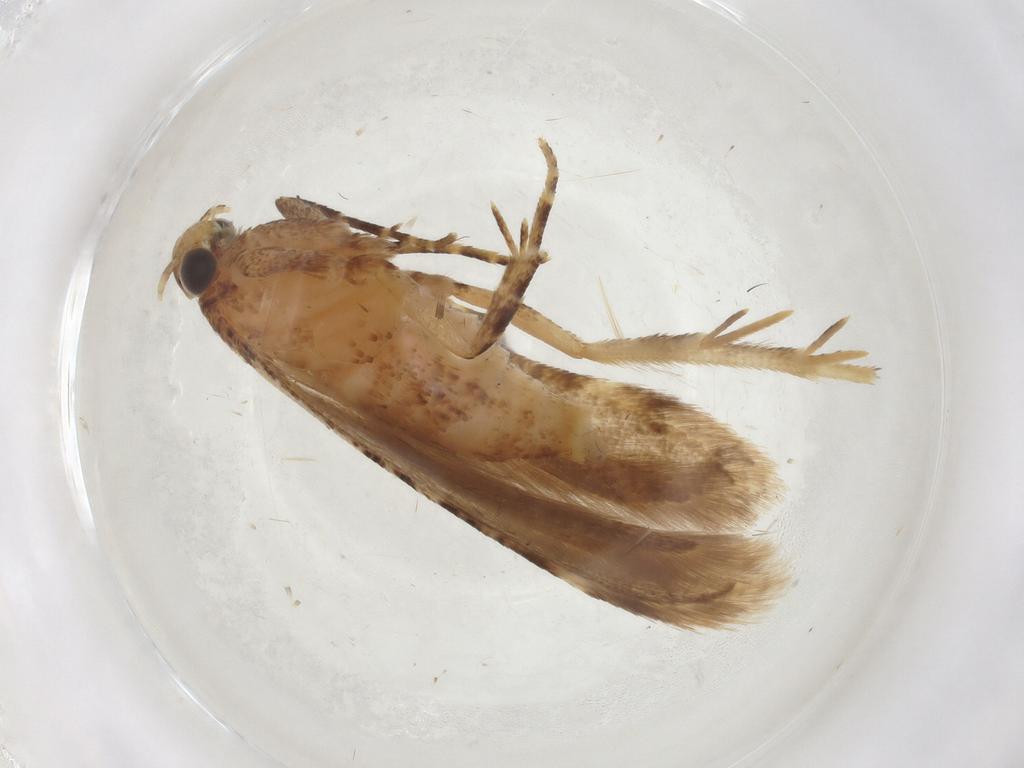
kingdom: Animalia
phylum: Arthropoda
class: Insecta
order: Lepidoptera
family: Gelechiidae
